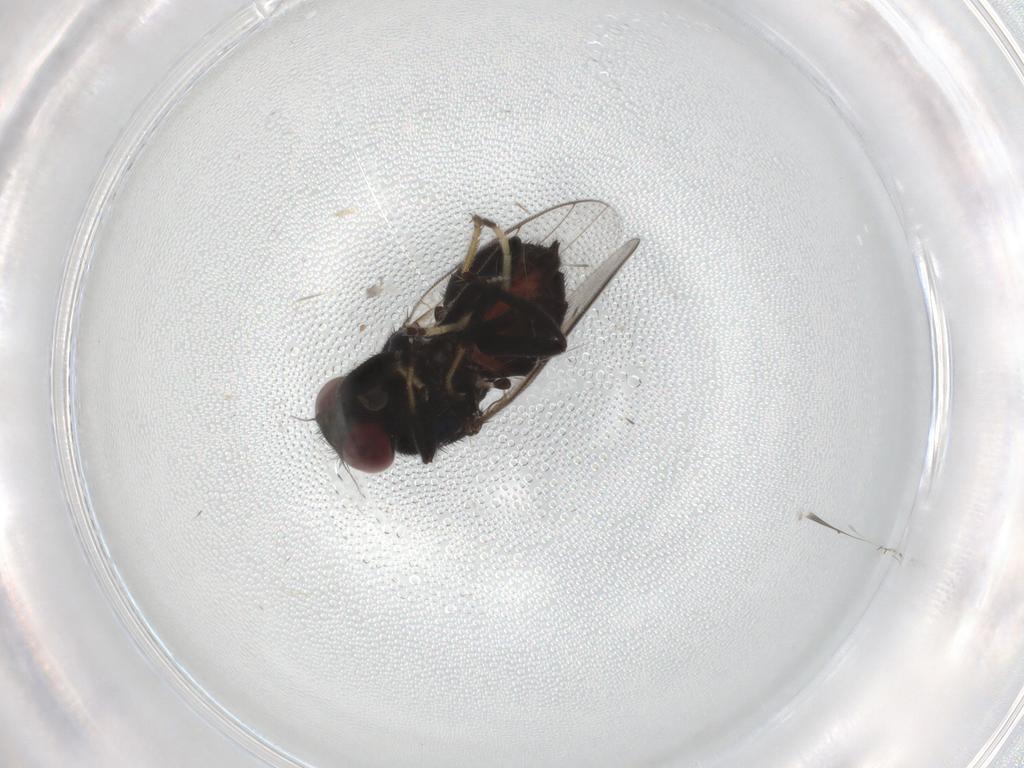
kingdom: Animalia
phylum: Arthropoda
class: Insecta
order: Diptera
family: Chloropidae
